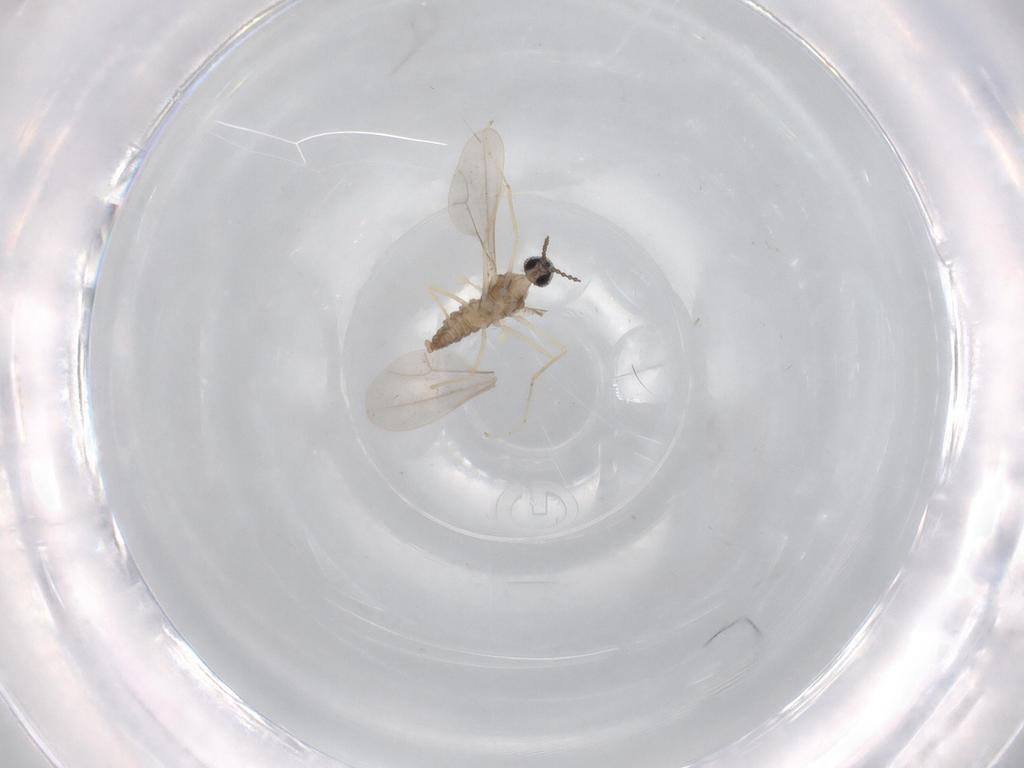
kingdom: Animalia
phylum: Arthropoda
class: Insecta
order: Diptera
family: Cecidomyiidae
